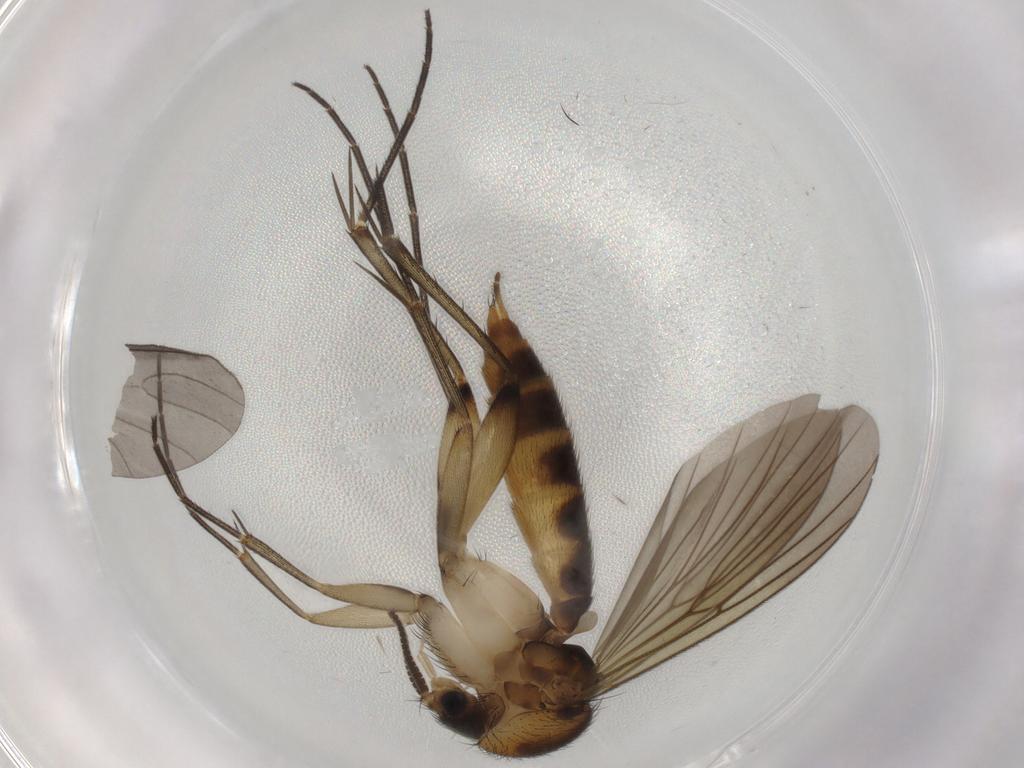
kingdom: Animalia
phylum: Arthropoda
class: Insecta
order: Diptera
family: Mycetophilidae
